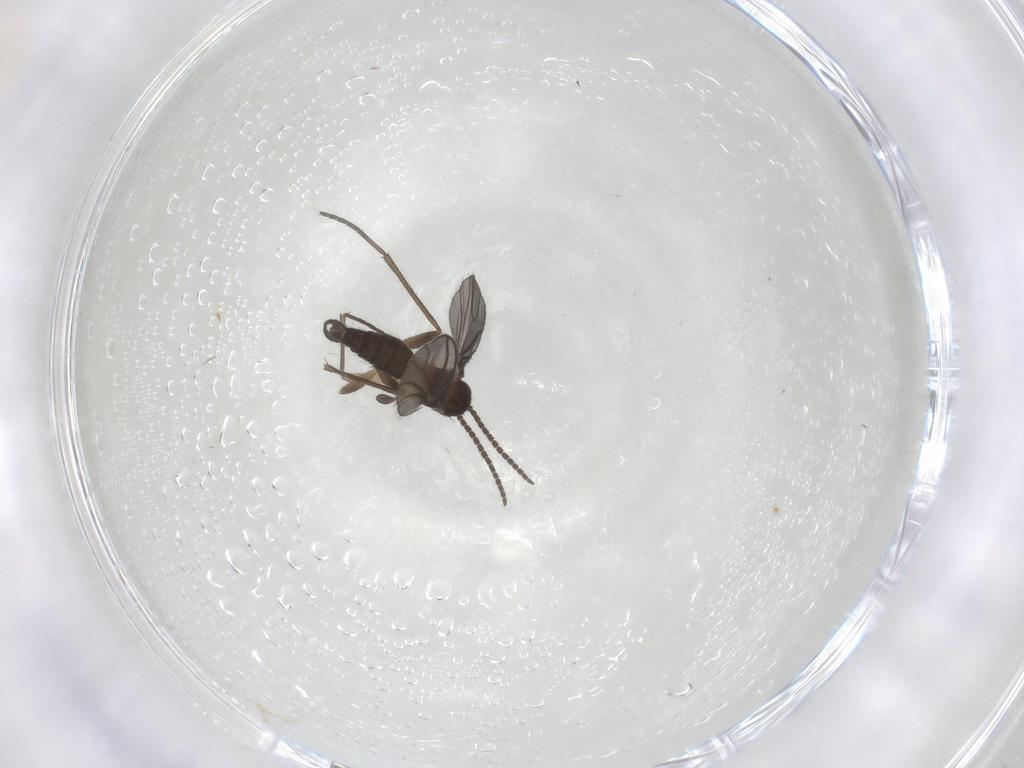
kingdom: Animalia
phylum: Arthropoda
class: Insecta
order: Diptera
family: Sciaridae
